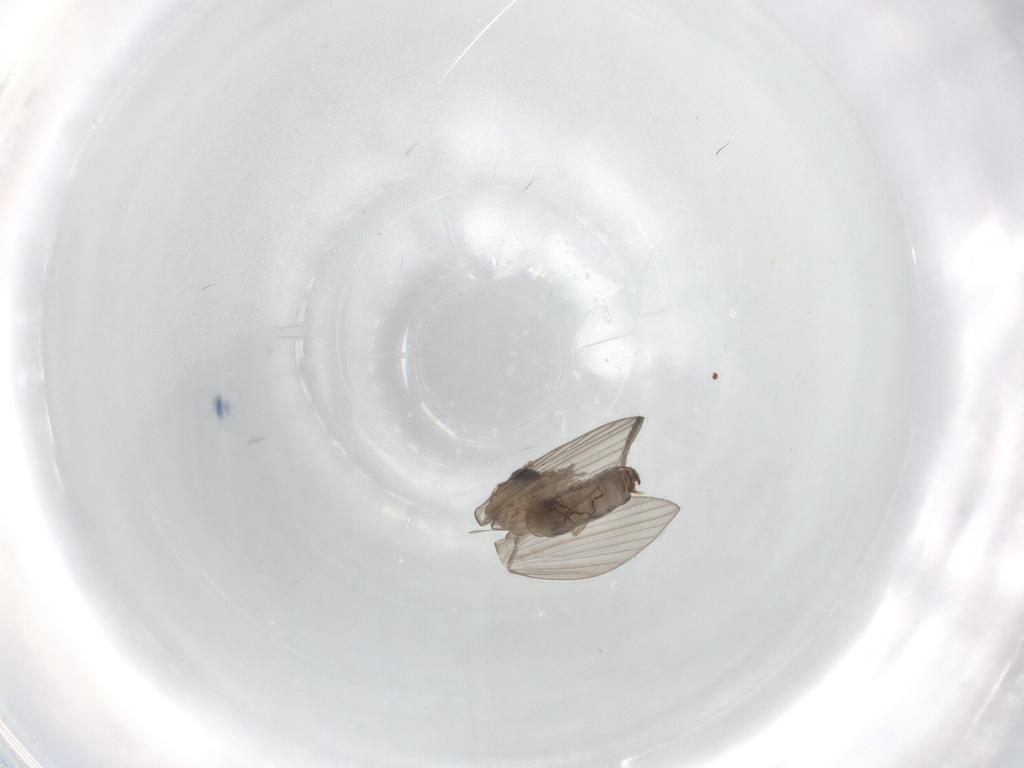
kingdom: Animalia
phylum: Arthropoda
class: Insecta
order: Diptera
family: Psychodidae
